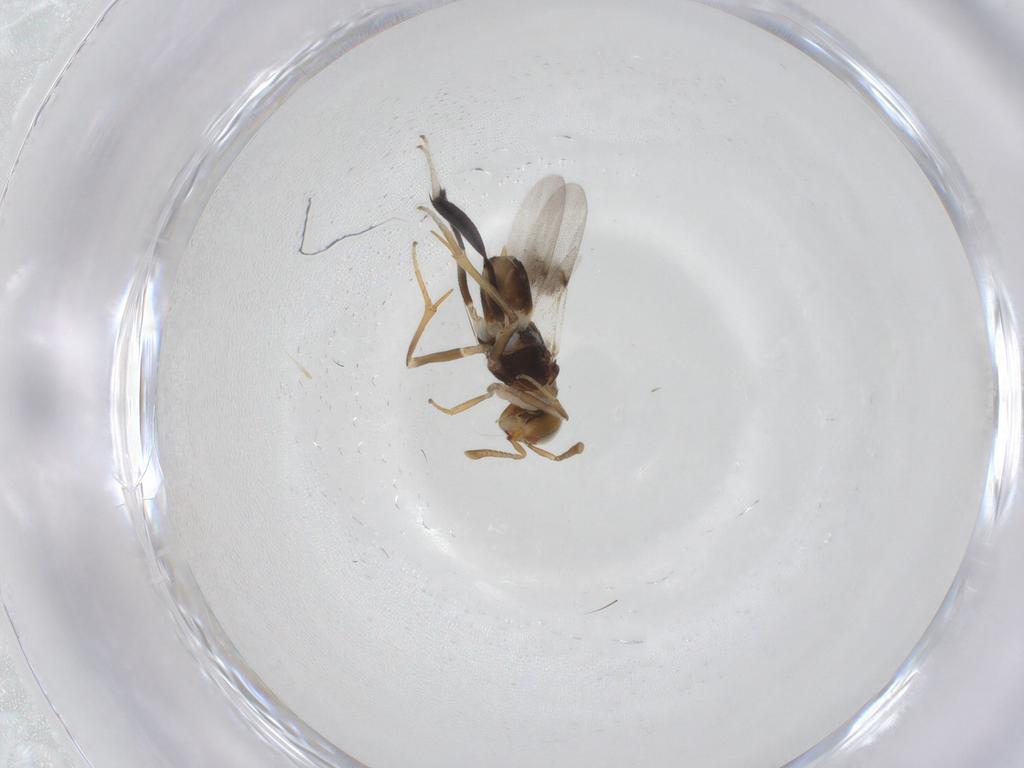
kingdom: Animalia
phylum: Arthropoda
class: Insecta
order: Hymenoptera
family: Encyrtidae
